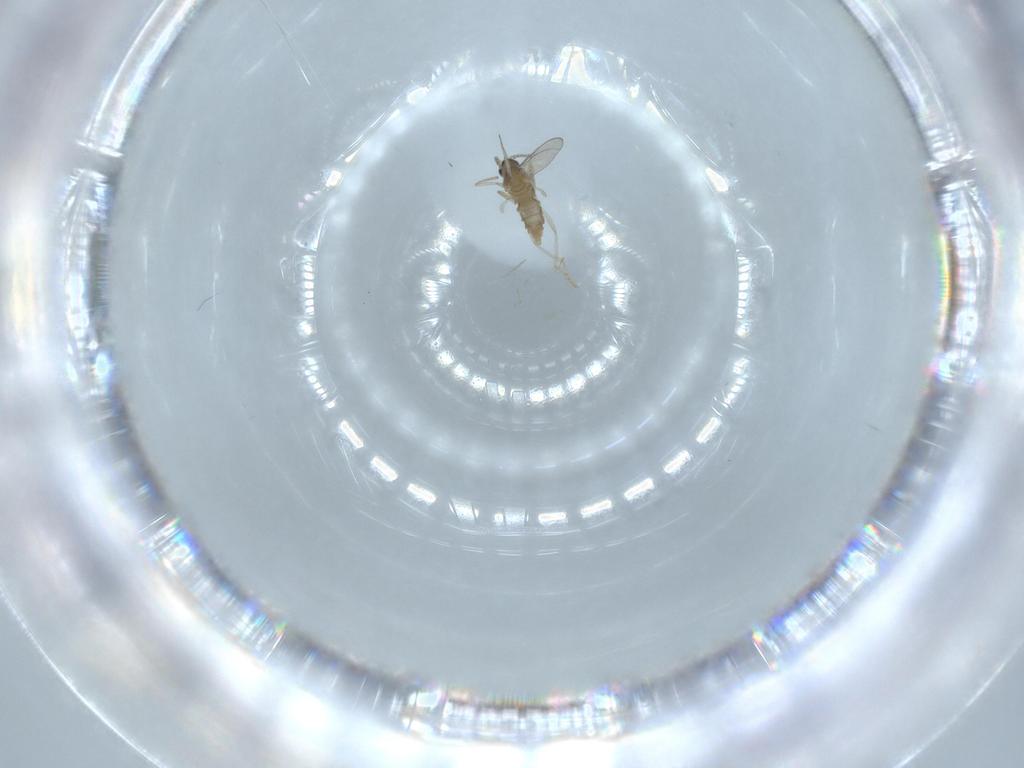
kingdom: Animalia
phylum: Arthropoda
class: Insecta
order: Diptera
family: Cecidomyiidae
